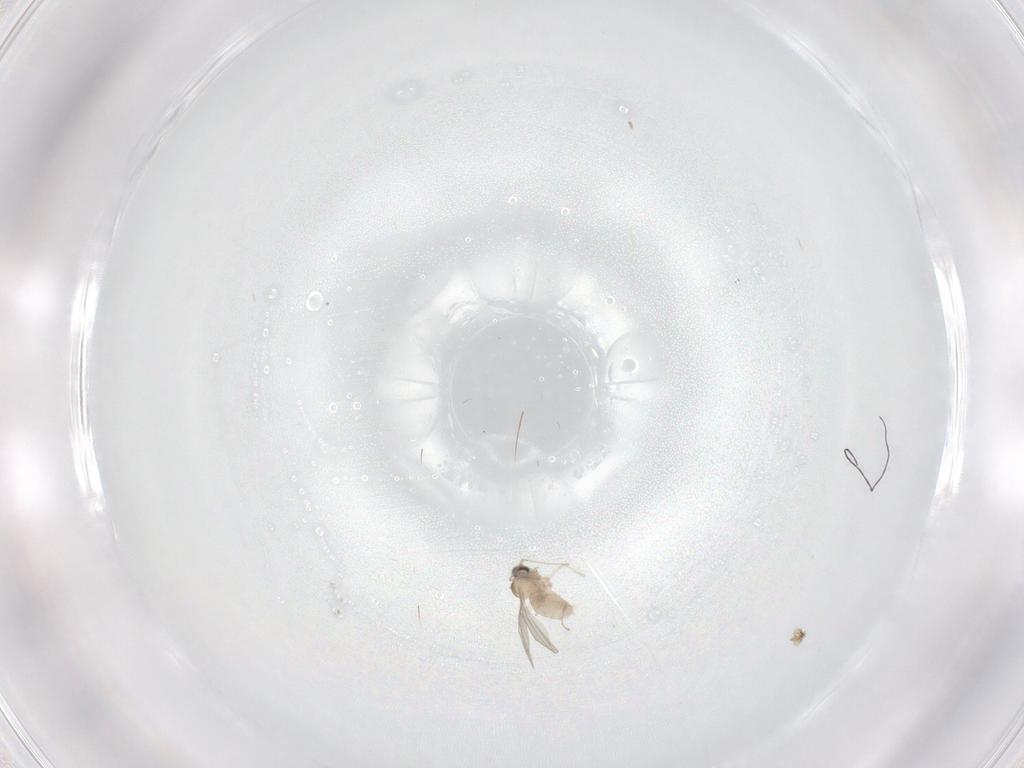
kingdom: Animalia
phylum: Arthropoda
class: Insecta
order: Diptera
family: Cecidomyiidae
